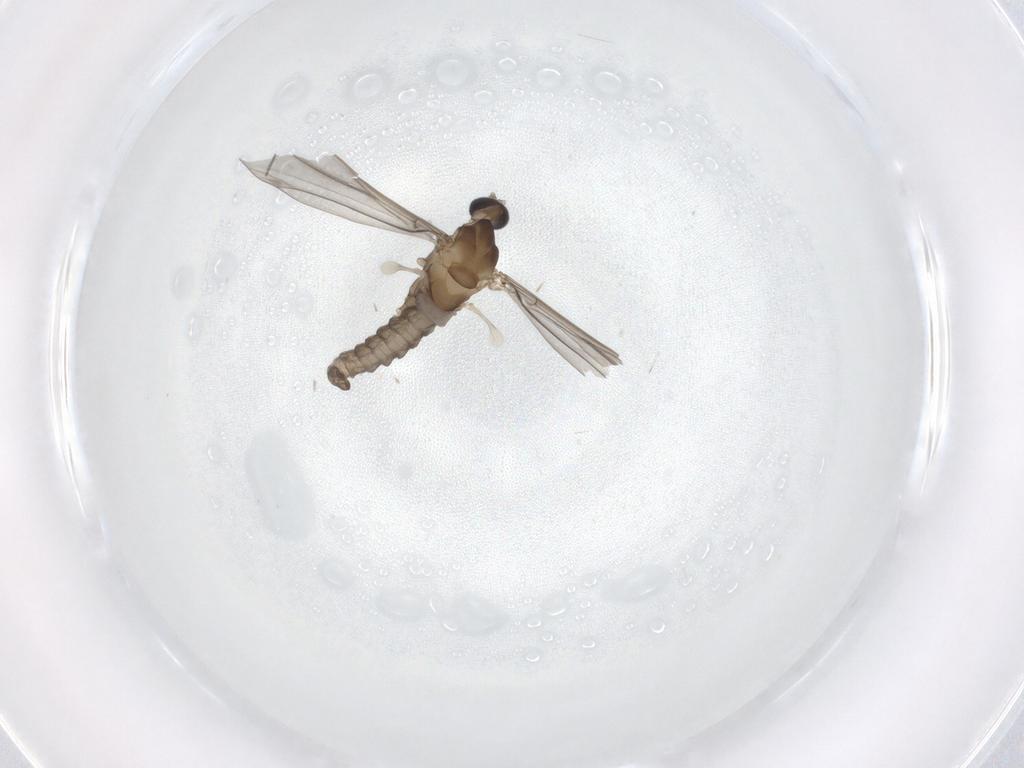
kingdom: Animalia
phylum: Arthropoda
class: Insecta
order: Diptera
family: Cecidomyiidae
